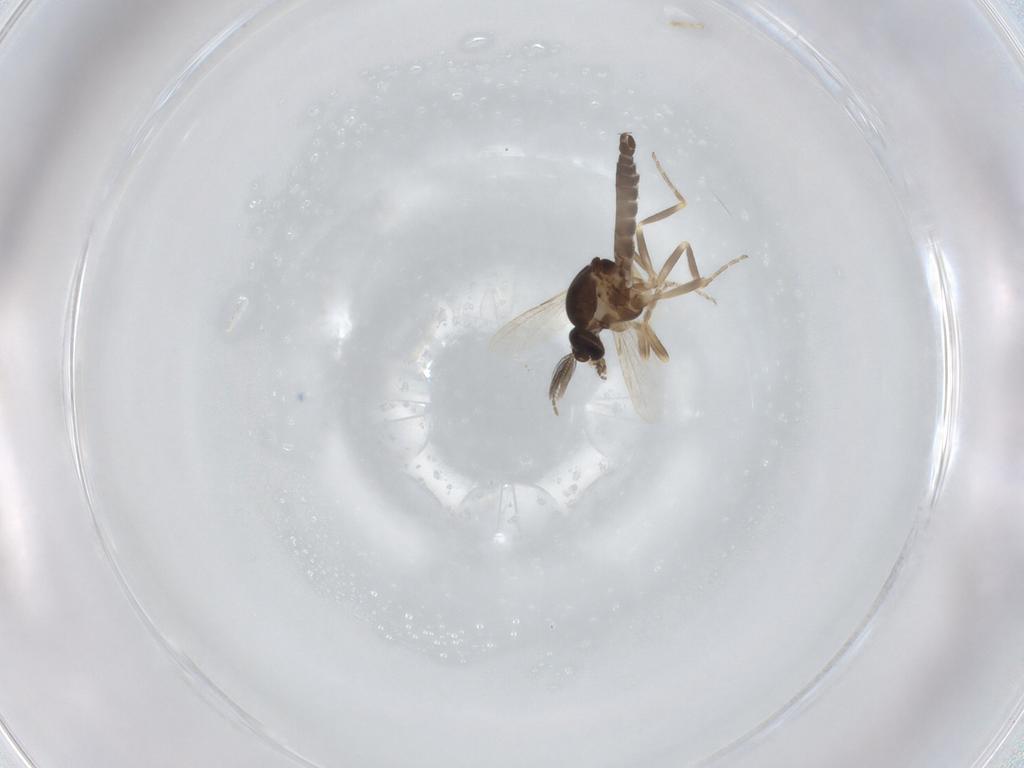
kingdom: Animalia
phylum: Arthropoda
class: Insecta
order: Diptera
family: Ceratopogonidae
